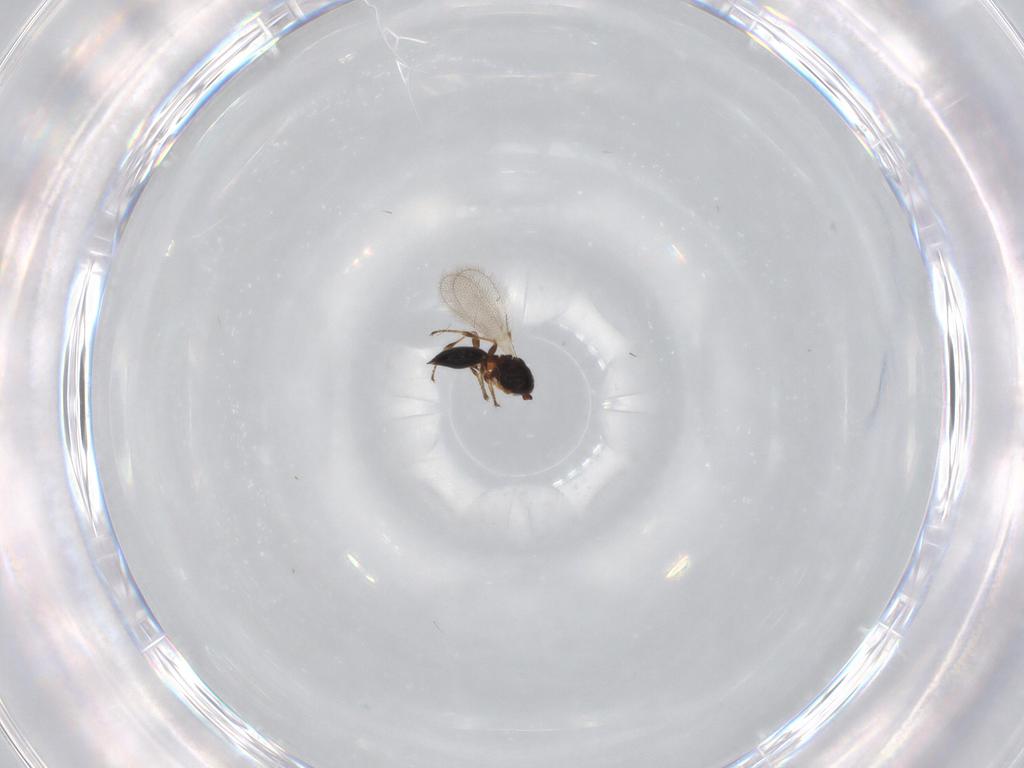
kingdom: Animalia
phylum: Arthropoda
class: Insecta
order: Hymenoptera
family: Diapriidae
